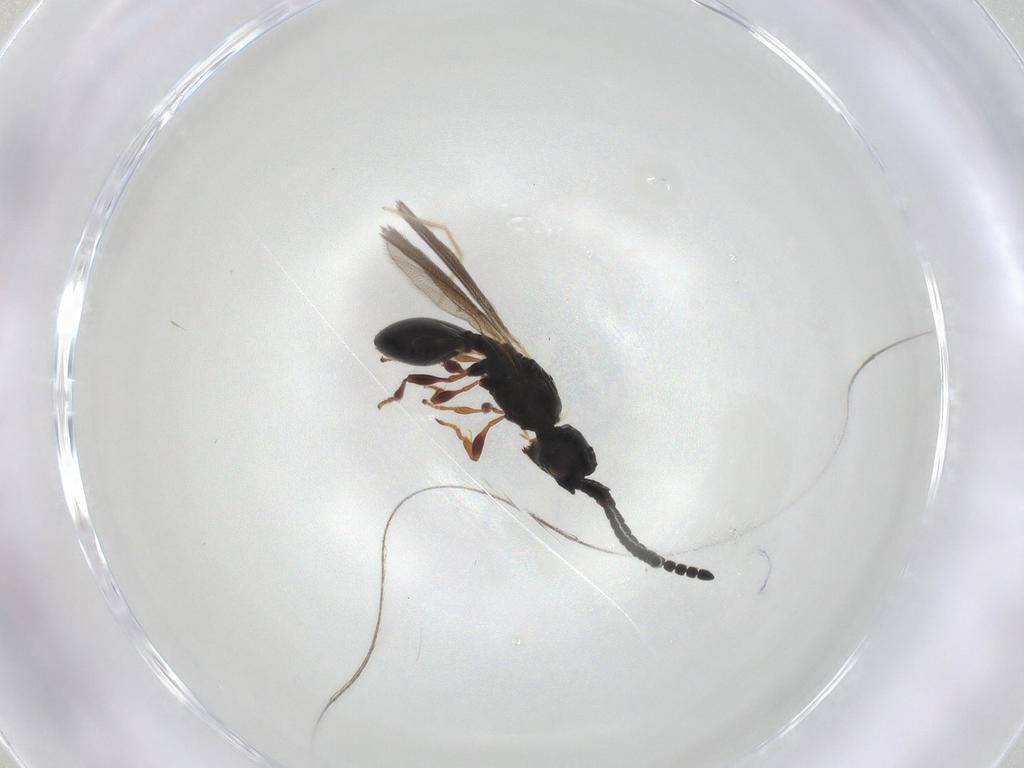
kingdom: Animalia
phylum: Arthropoda
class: Insecta
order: Hymenoptera
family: Diapriidae
